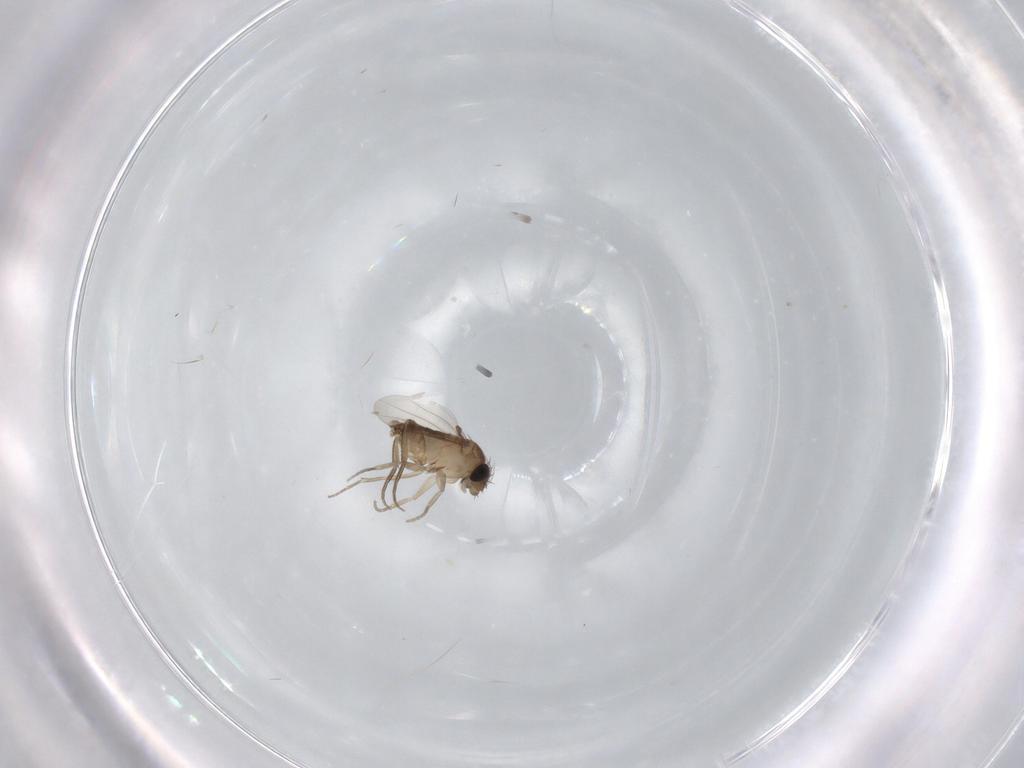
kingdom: Animalia
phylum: Arthropoda
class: Insecta
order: Diptera
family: Phoridae
